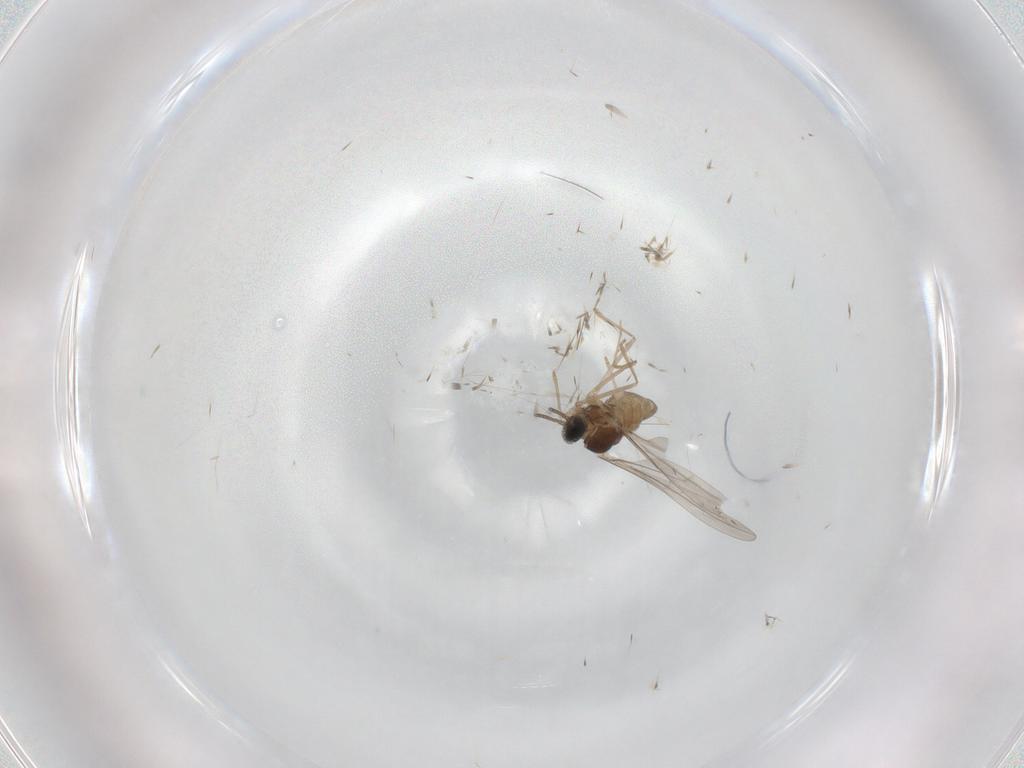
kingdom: Animalia
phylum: Arthropoda
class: Insecta
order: Diptera
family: Cecidomyiidae
